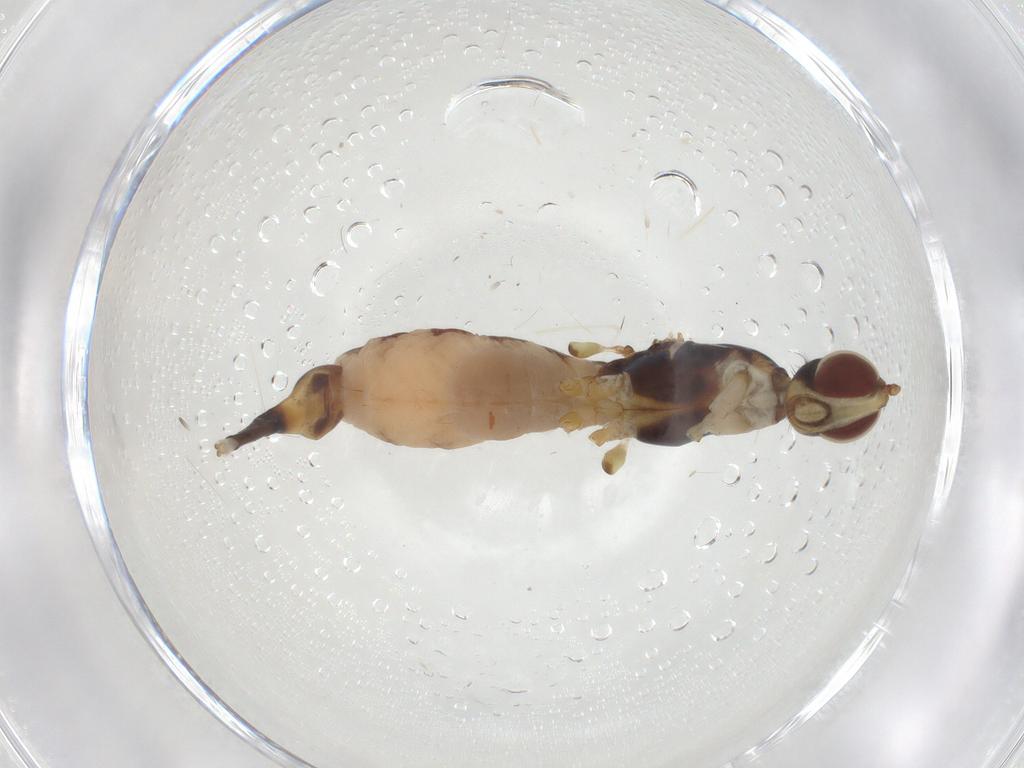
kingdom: Animalia
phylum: Arthropoda
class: Insecta
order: Diptera
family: Micropezidae
